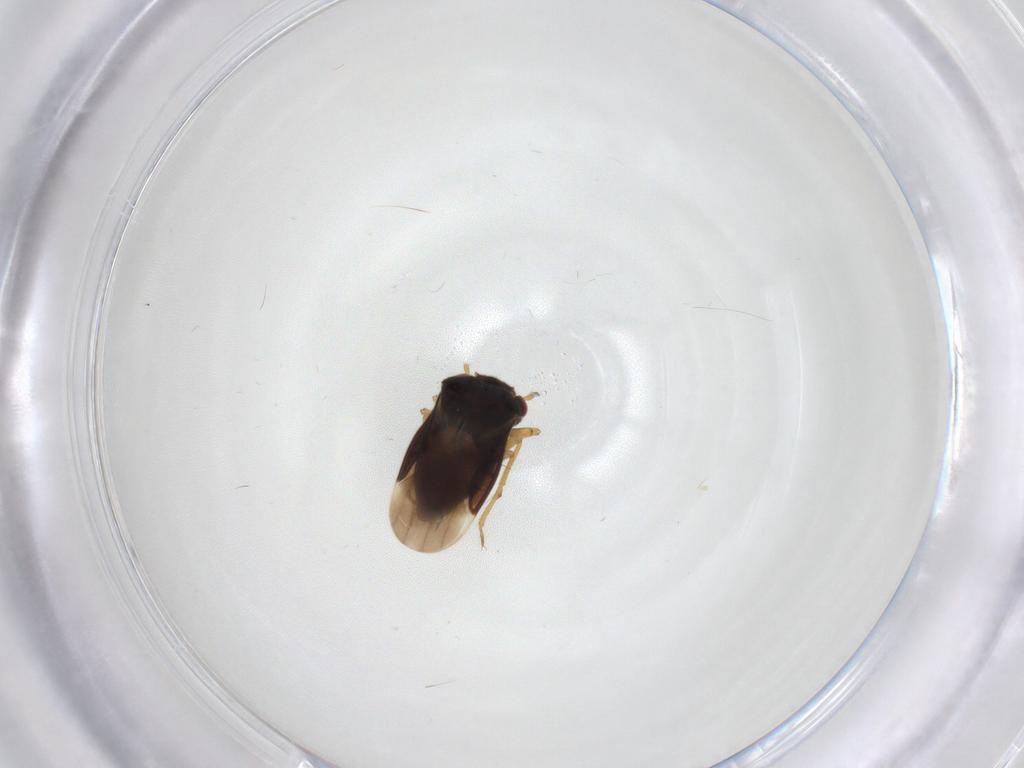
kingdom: Animalia
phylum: Arthropoda
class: Insecta
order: Hemiptera
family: Schizopteridae
